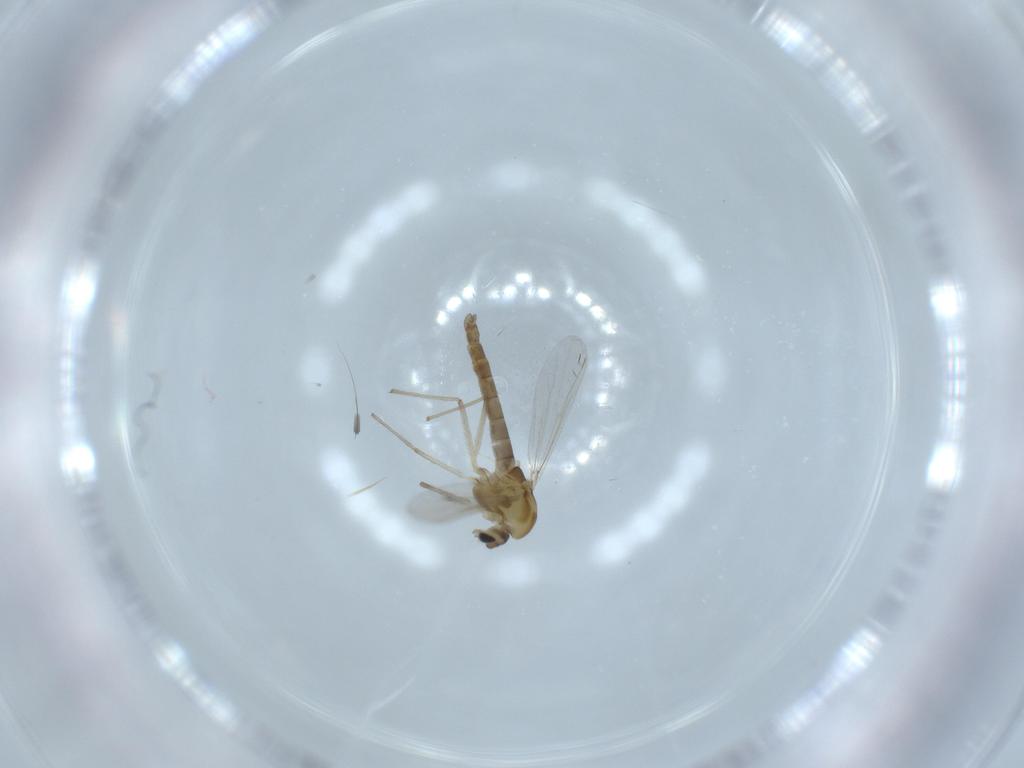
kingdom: Animalia
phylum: Arthropoda
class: Insecta
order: Diptera
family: Chironomidae
